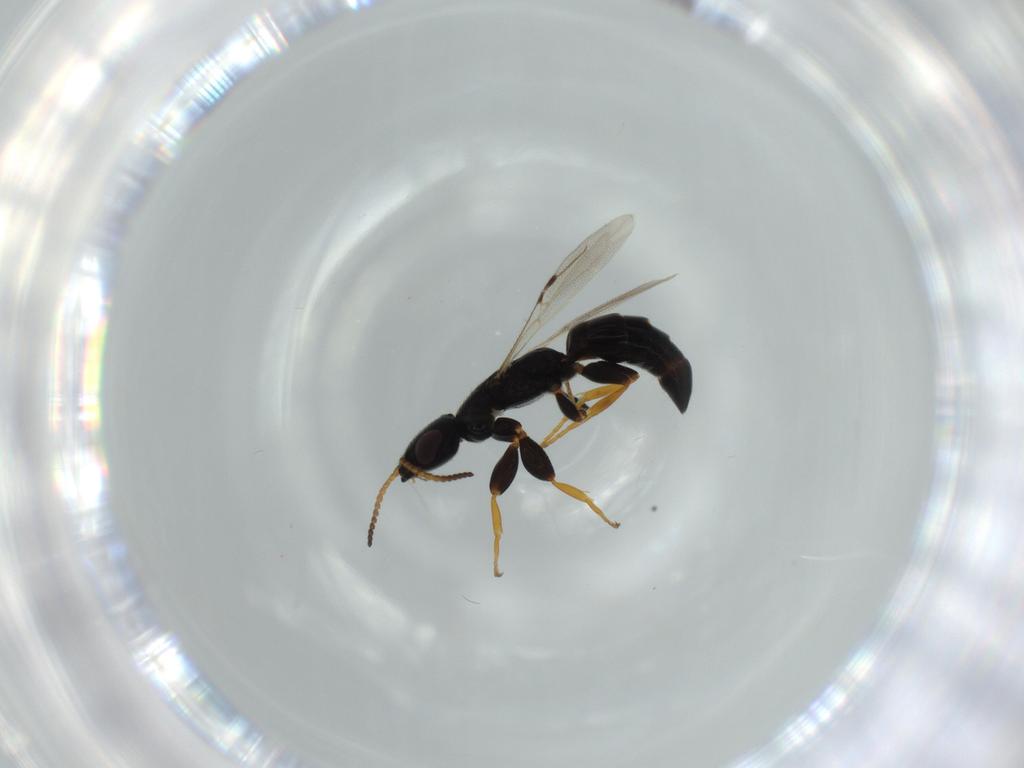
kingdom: Animalia
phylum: Arthropoda
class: Insecta
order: Hymenoptera
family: Bethylidae
